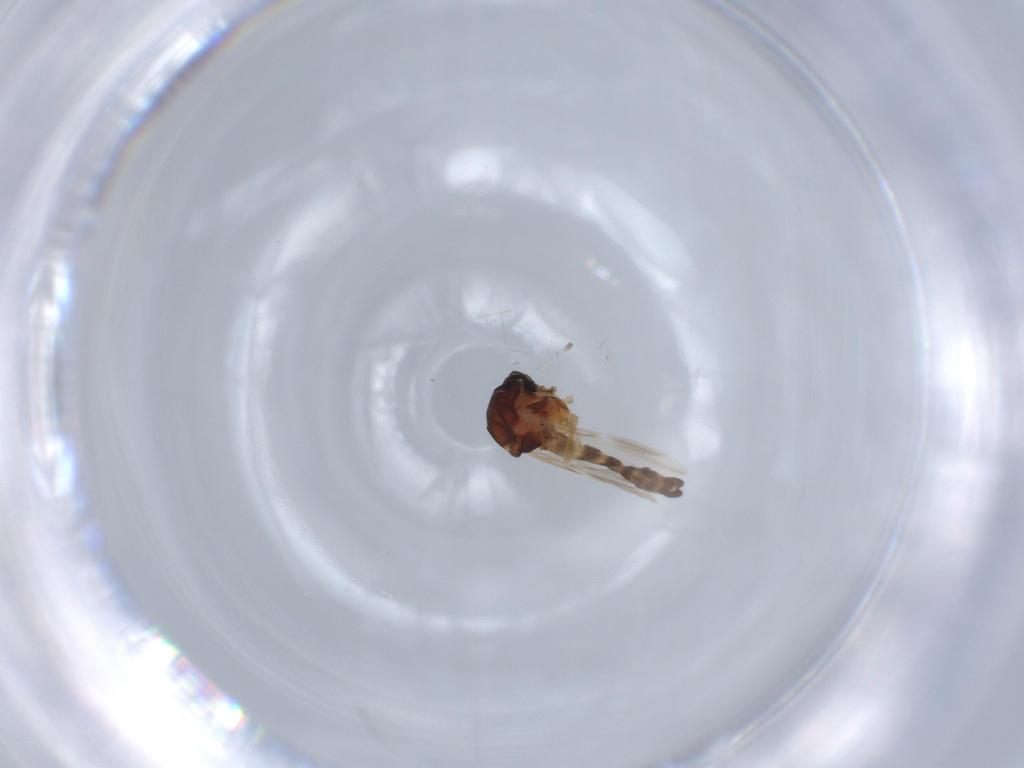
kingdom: Animalia
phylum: Arthropoda
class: Insecta
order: Diptera
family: Ceratopogonidae
